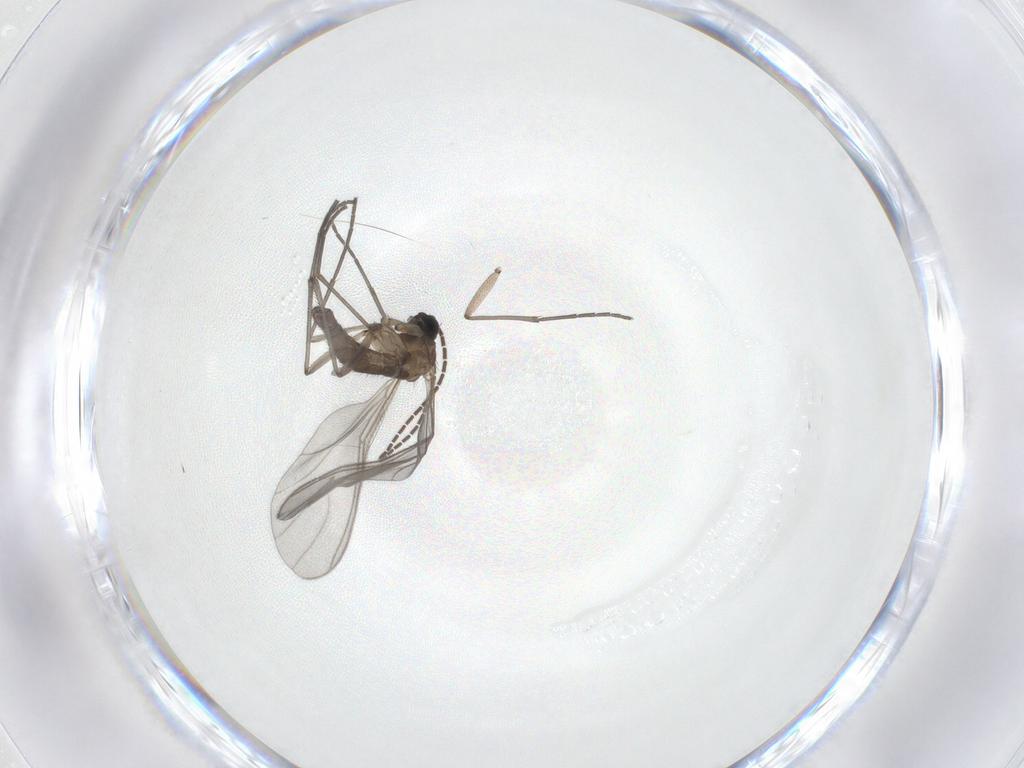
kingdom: Animalia
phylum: Arthropoda
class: Insecta
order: Diptera
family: Sciaridae
